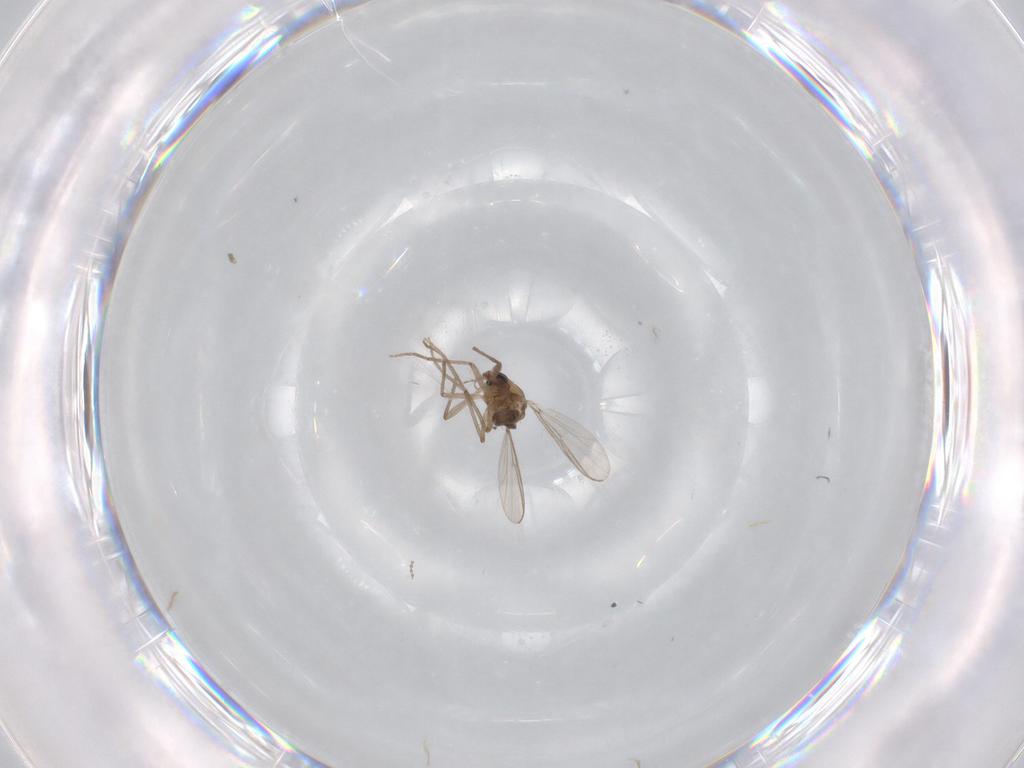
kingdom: Animalia
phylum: Arthropoda
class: Insecta
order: Diptera
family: Chironomidae
